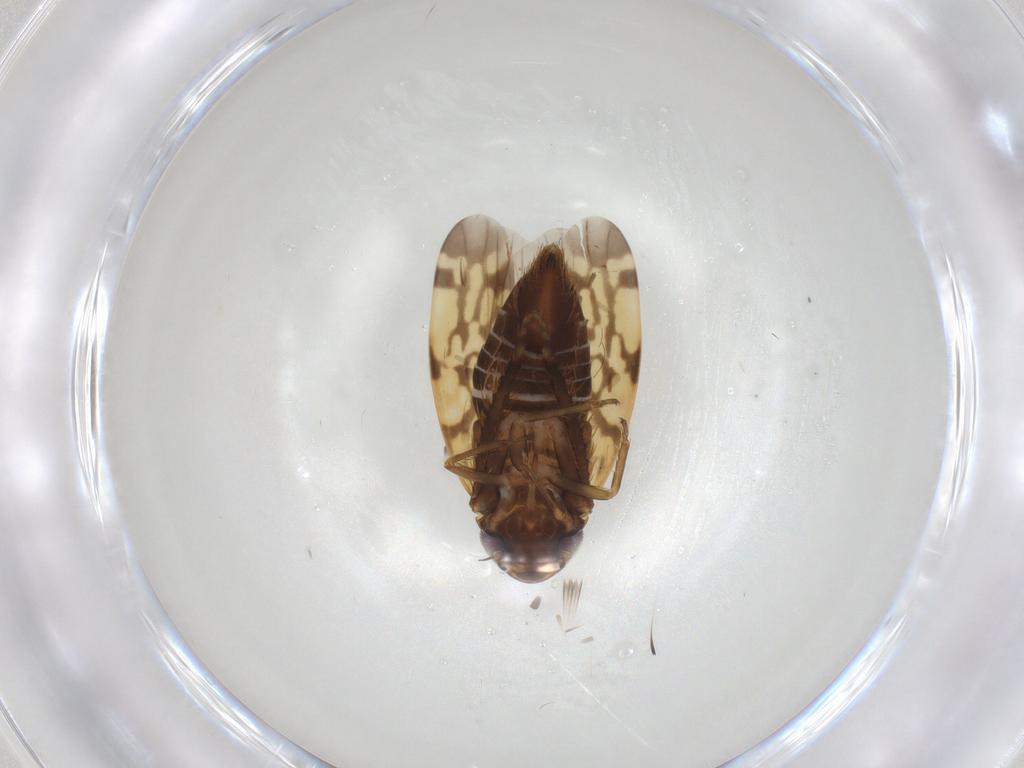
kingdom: Animalia
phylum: Arthropoda
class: Insecta
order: Hemiptera
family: Cicadellidae
